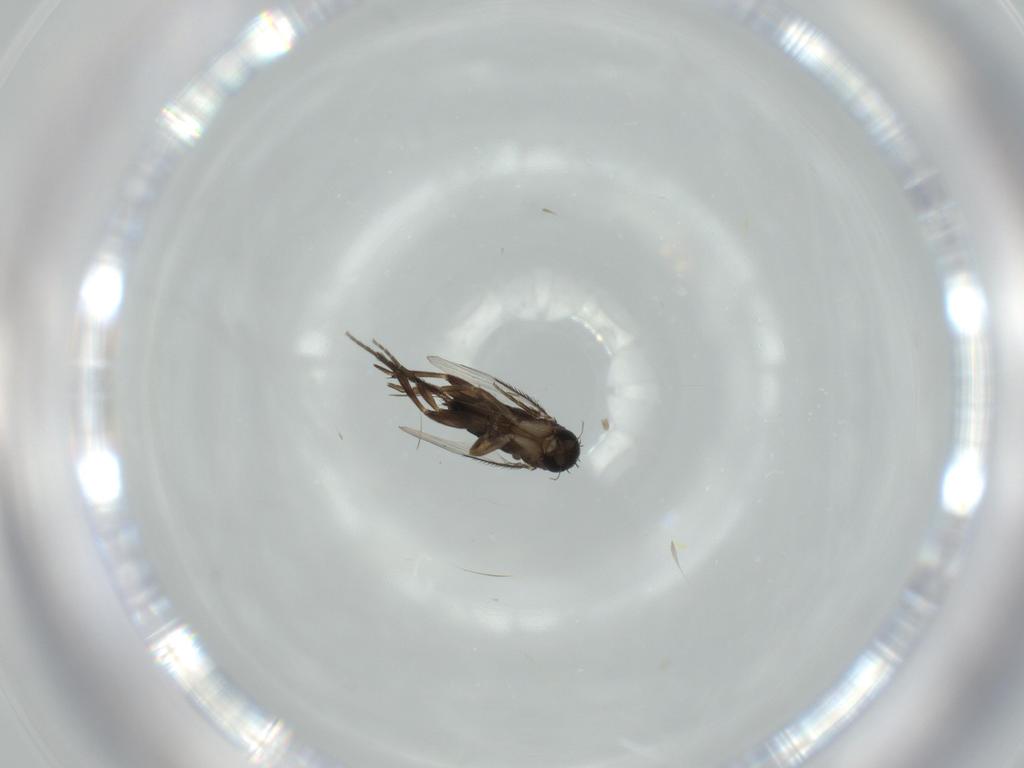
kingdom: Animalia
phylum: Arthropoda
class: Insecta
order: Diptera
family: Phoridae
